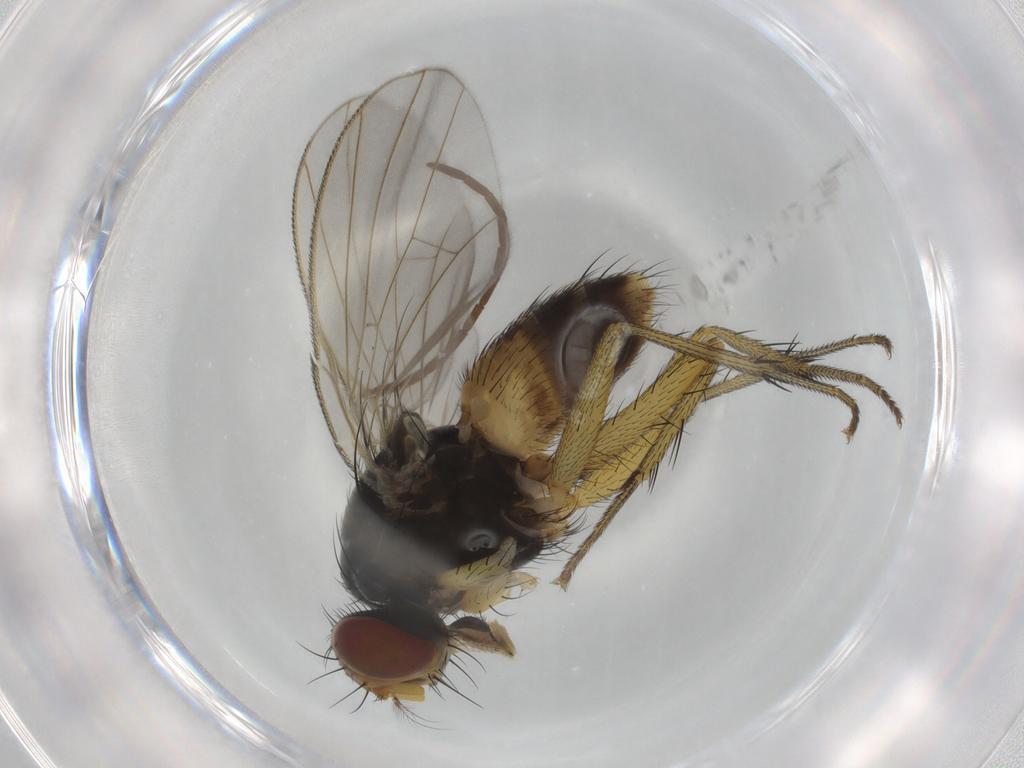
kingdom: Animalia
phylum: Arthropoda
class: Insecta
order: Diptera
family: Muscidae
